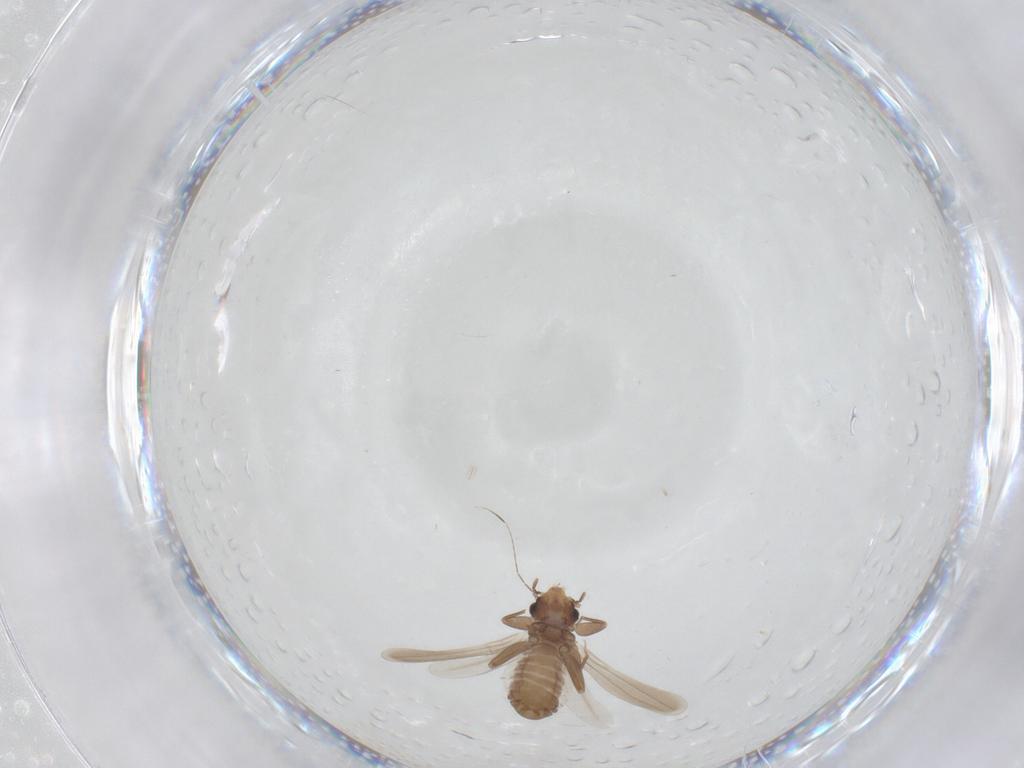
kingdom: Animalia
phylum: Arthropoda
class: Insecta
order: Psocodea
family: Liposcelididae
